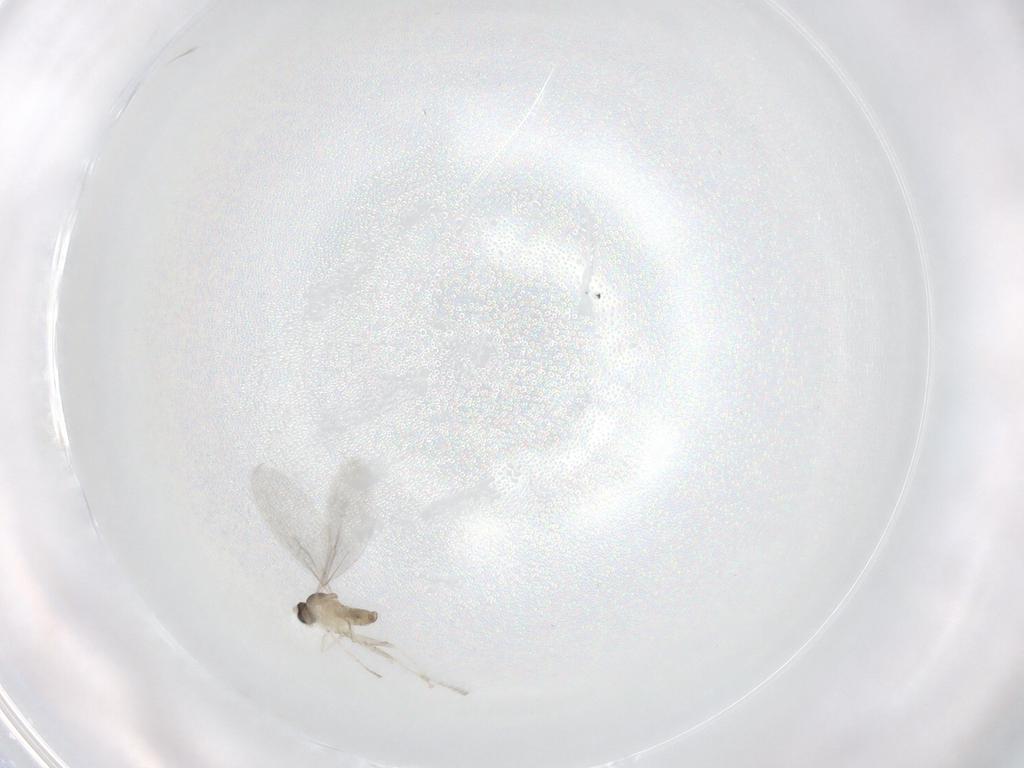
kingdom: Animalia
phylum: Arthropoda
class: Insecta
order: Diptera
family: Cecidomyiidae
